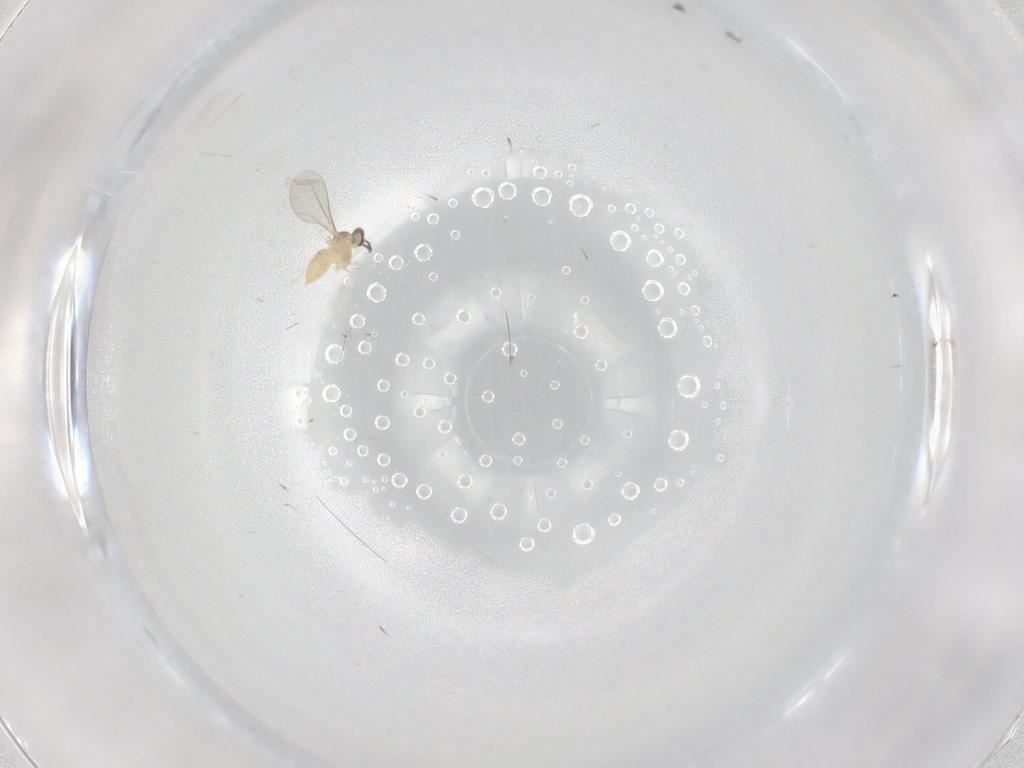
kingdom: Animalia
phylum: Arthropoda
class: Insecta
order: Diptera
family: Cecidomyiidae
